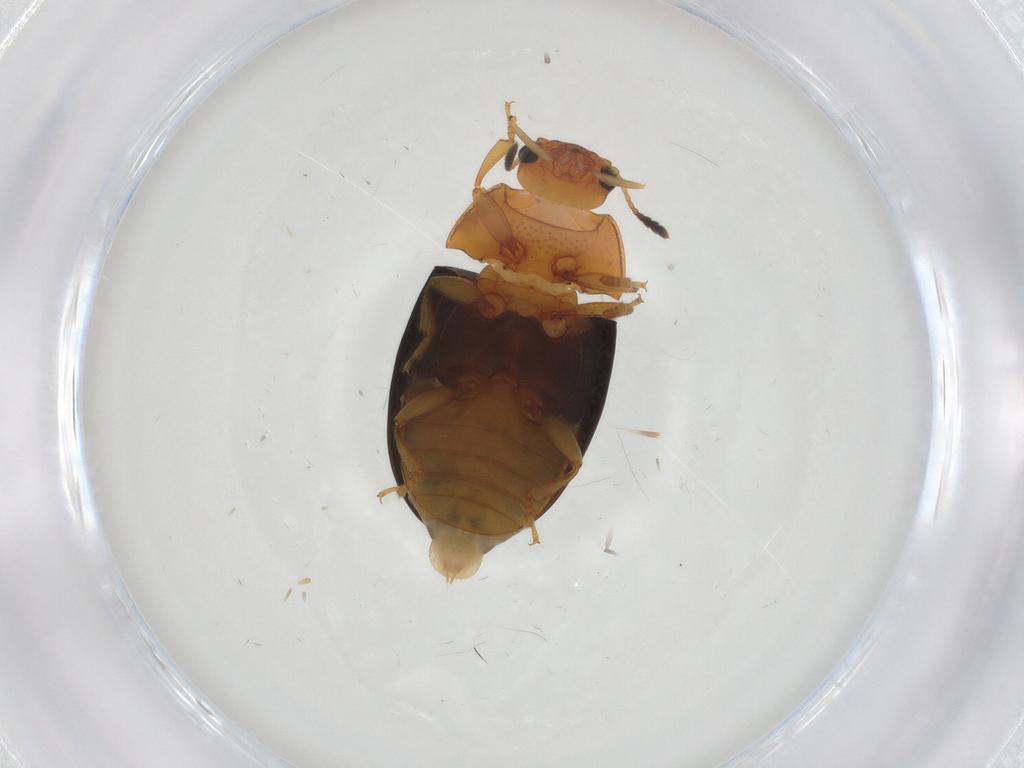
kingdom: Animalia
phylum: Arthropoda
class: Insecta
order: Coleoptera
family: Erotylidae
